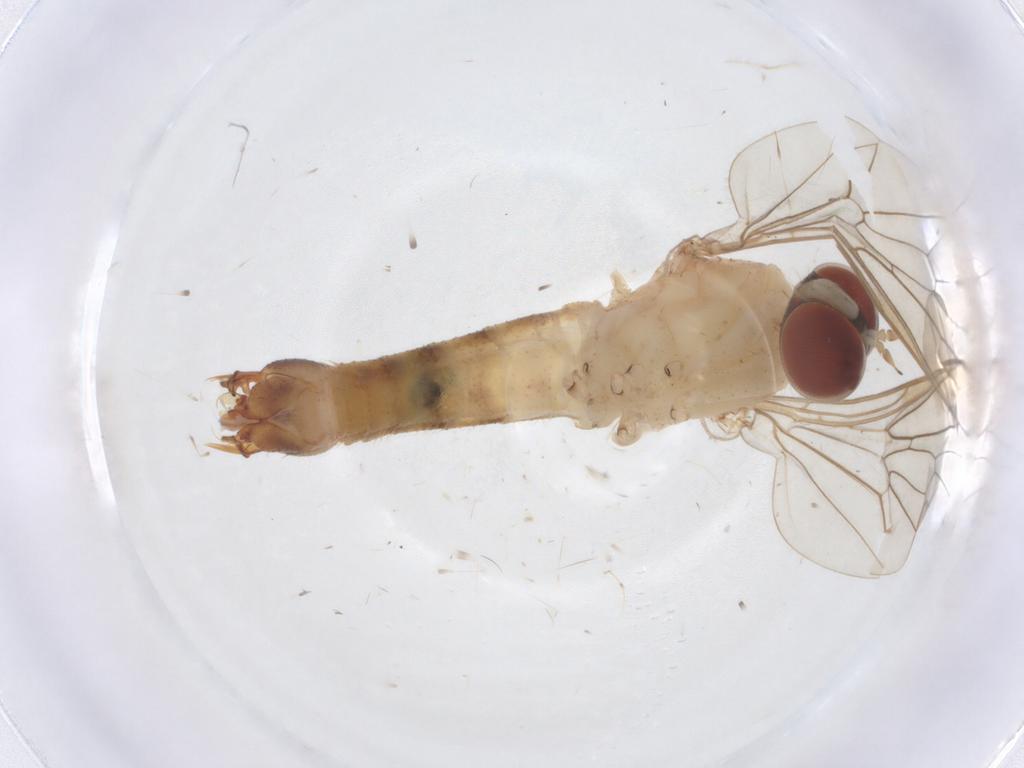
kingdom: Animalia
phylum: Arthropoda
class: Insecta
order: Diptera
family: Apsilocephalidae
